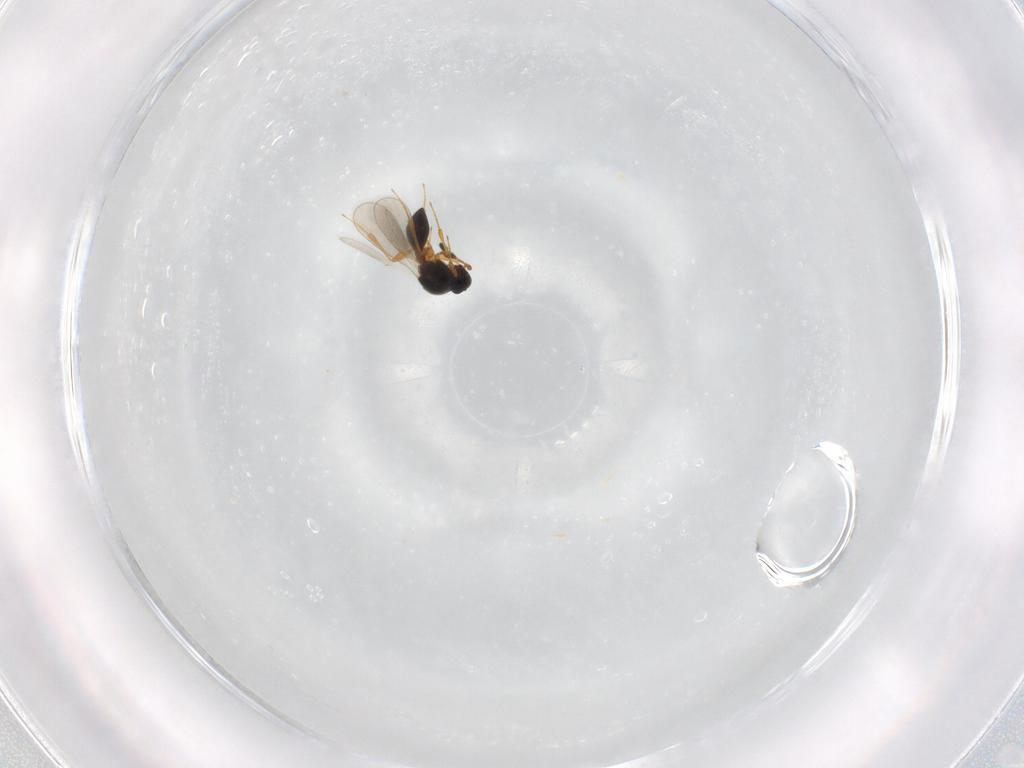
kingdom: Animalia
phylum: Arthropoda
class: Insecta
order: Hymenoptera
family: Platygastridae
